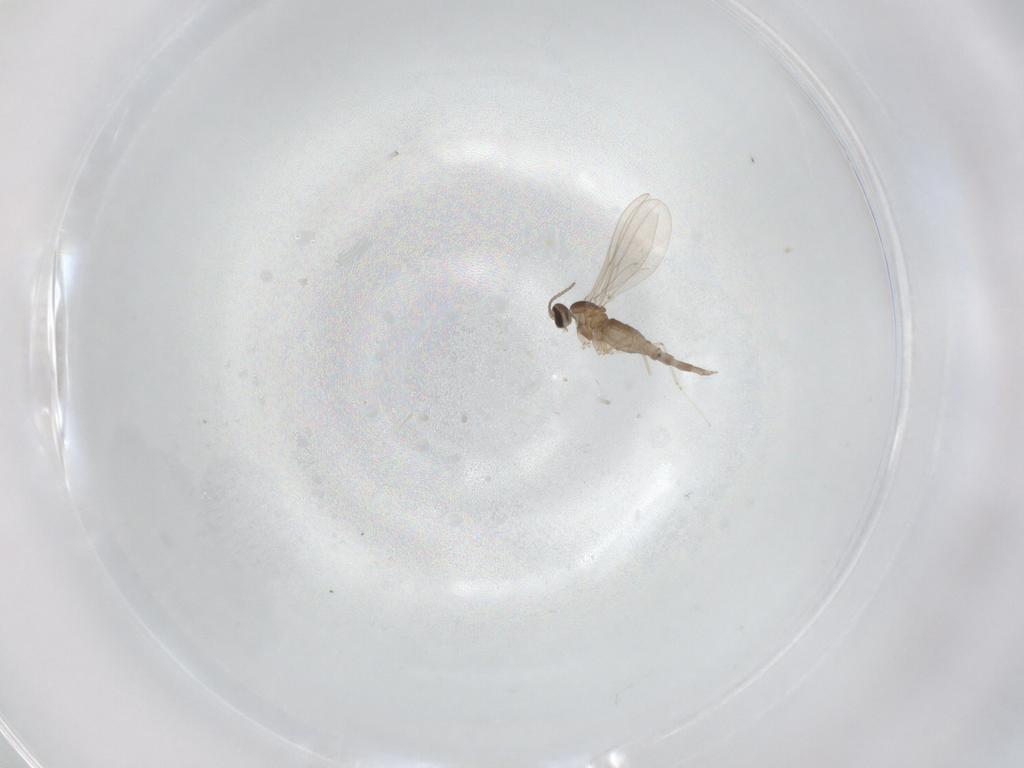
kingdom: Animalia
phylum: Arthropoda
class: Insecta
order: Diptera
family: Cecidomyiidae
